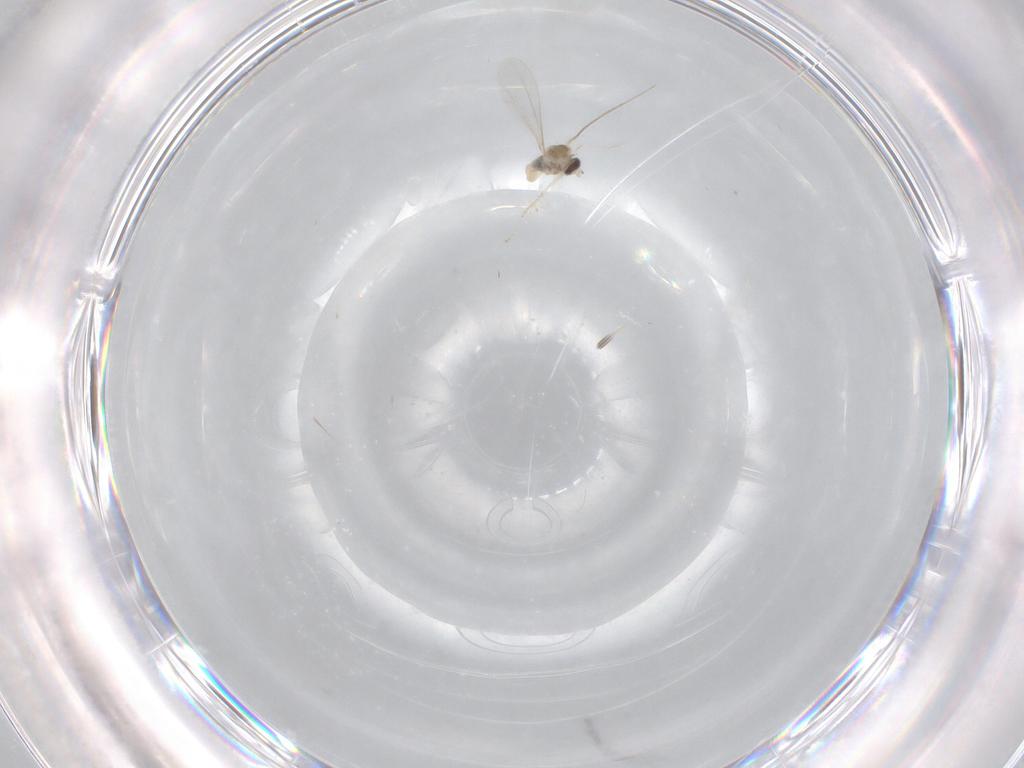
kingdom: Animalia
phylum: Arthropoda
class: Insecta
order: Diptera
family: Cecidomyiidae
